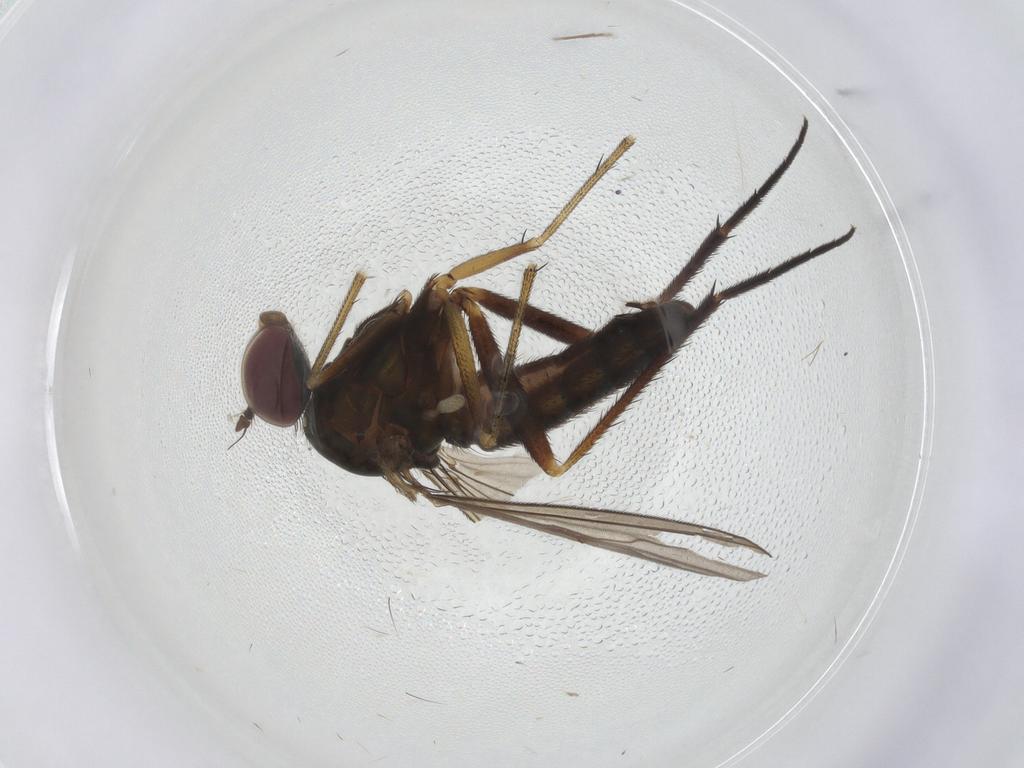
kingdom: Animalia
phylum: Arthropoda
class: Insecta
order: Diptera
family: Dolichopodidae
